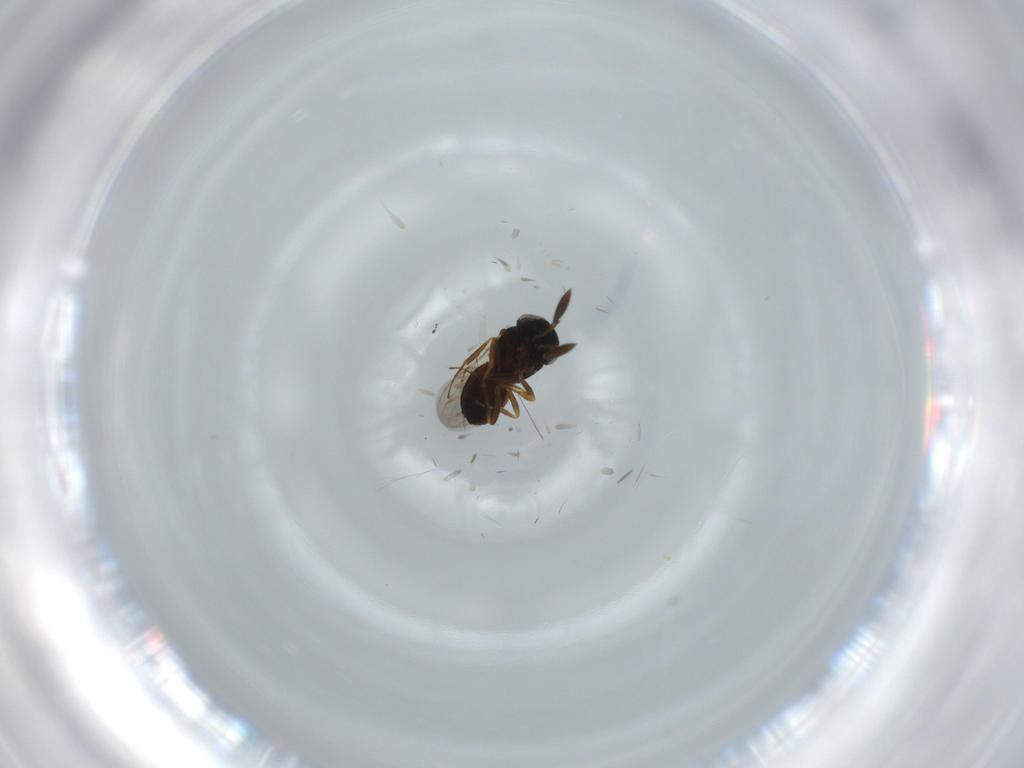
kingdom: Animalia
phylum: Arthropoda
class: Insecta
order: Hymenoptera
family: Scelionidae
